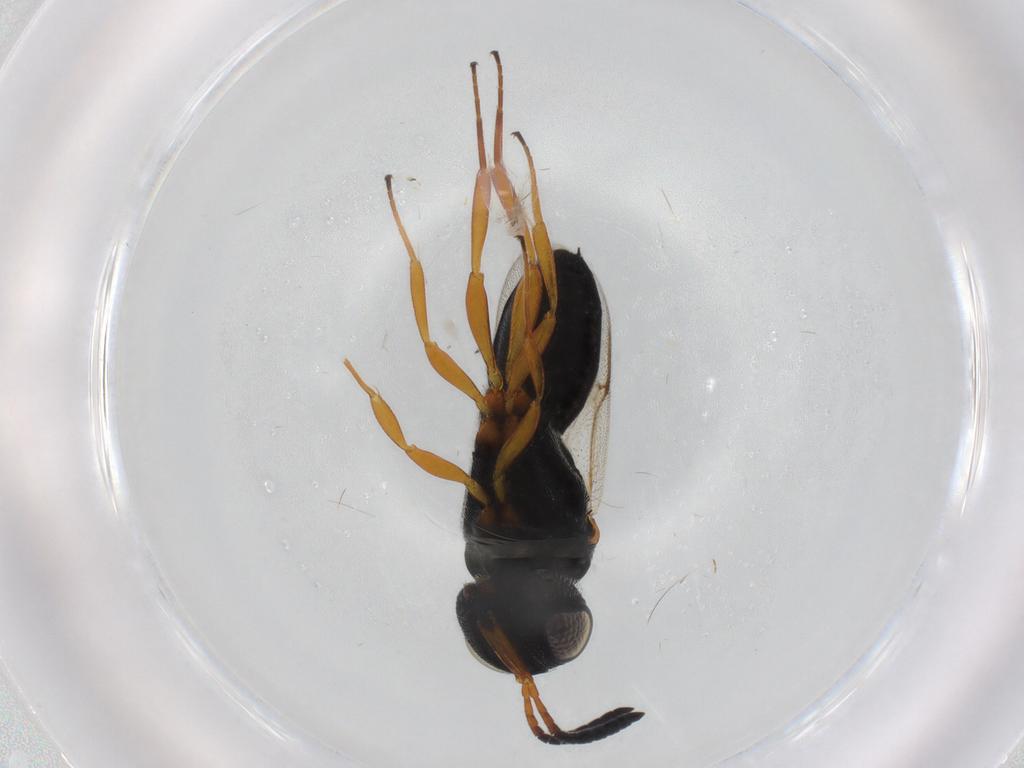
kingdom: Animalia
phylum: Arthropoda
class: Insecta
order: Hymenoptera
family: Scelionidae
